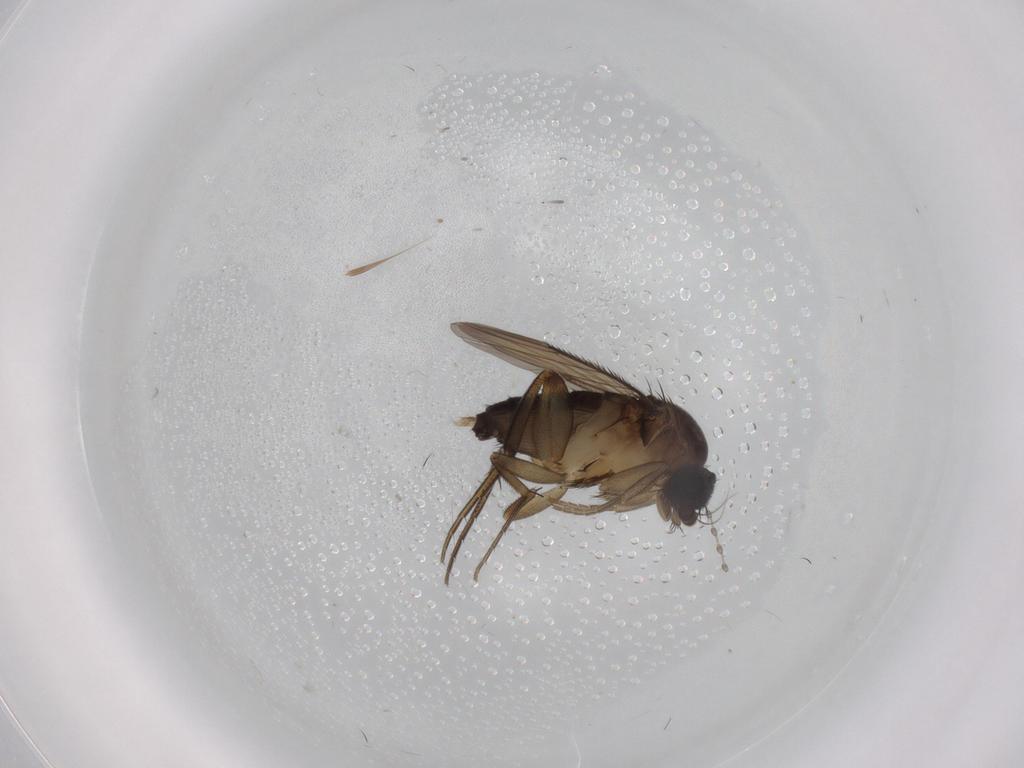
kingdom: Animalia
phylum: Arthropoda
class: Insecta
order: Diptera
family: Phoridae
